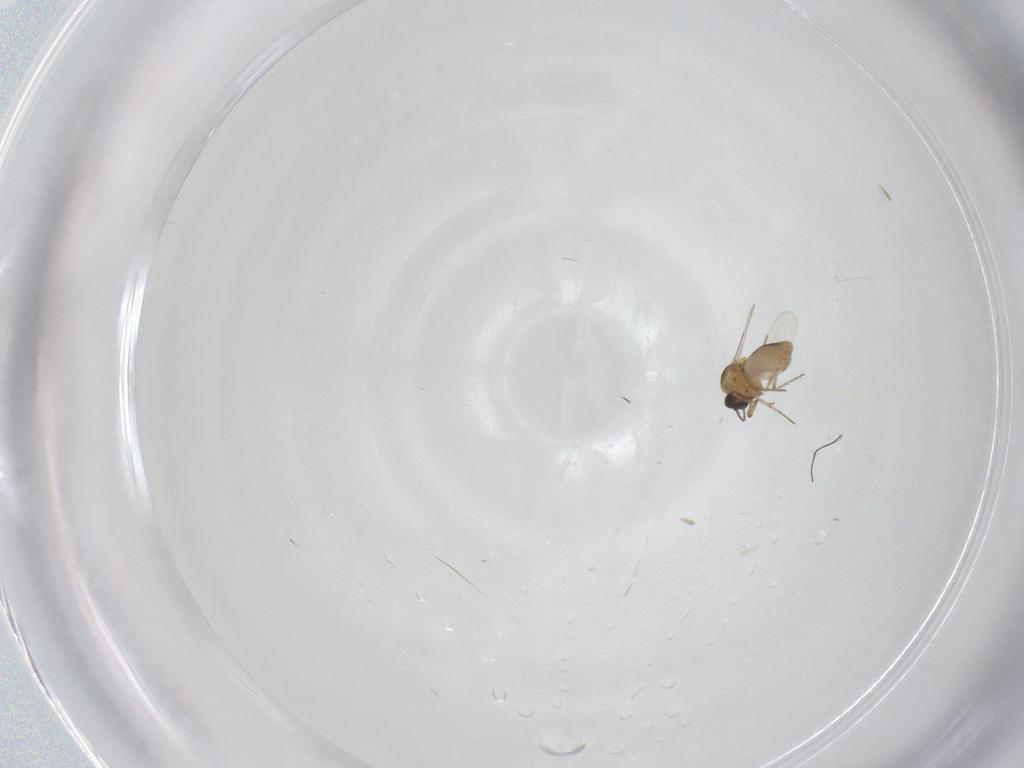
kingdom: Animalia
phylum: Arthropoda
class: Insecta
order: Diptera
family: Ceratopogonidae
